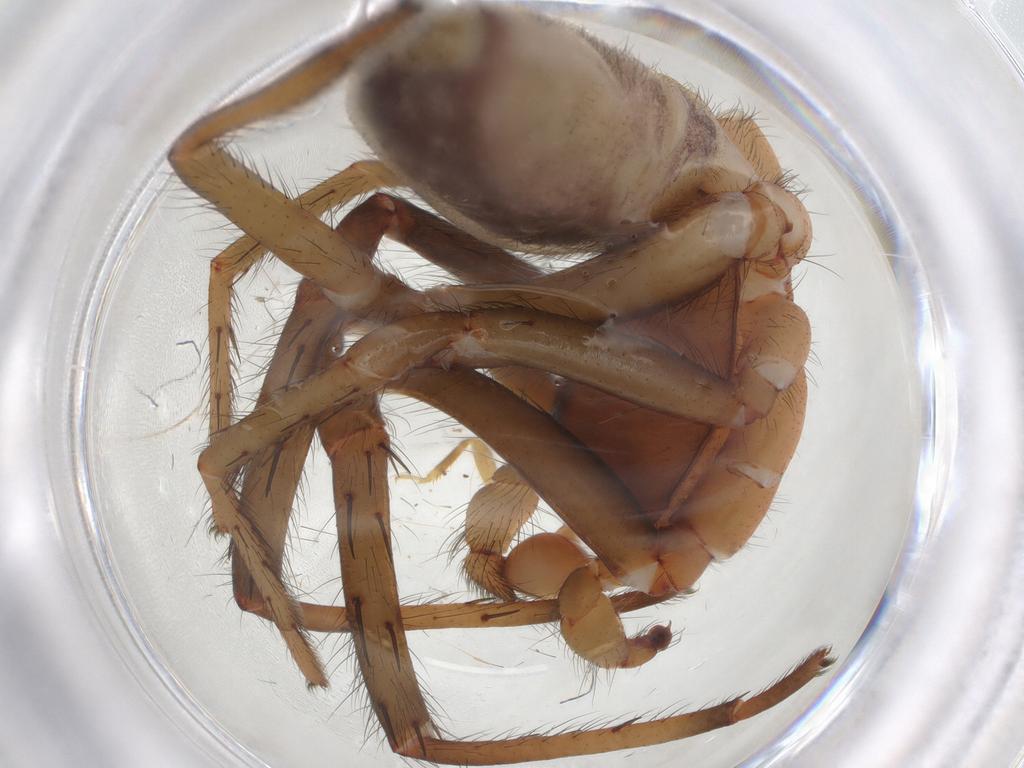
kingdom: Animalia
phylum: Arthropoda
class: Arachnida
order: Araneae
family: Segestriidae
